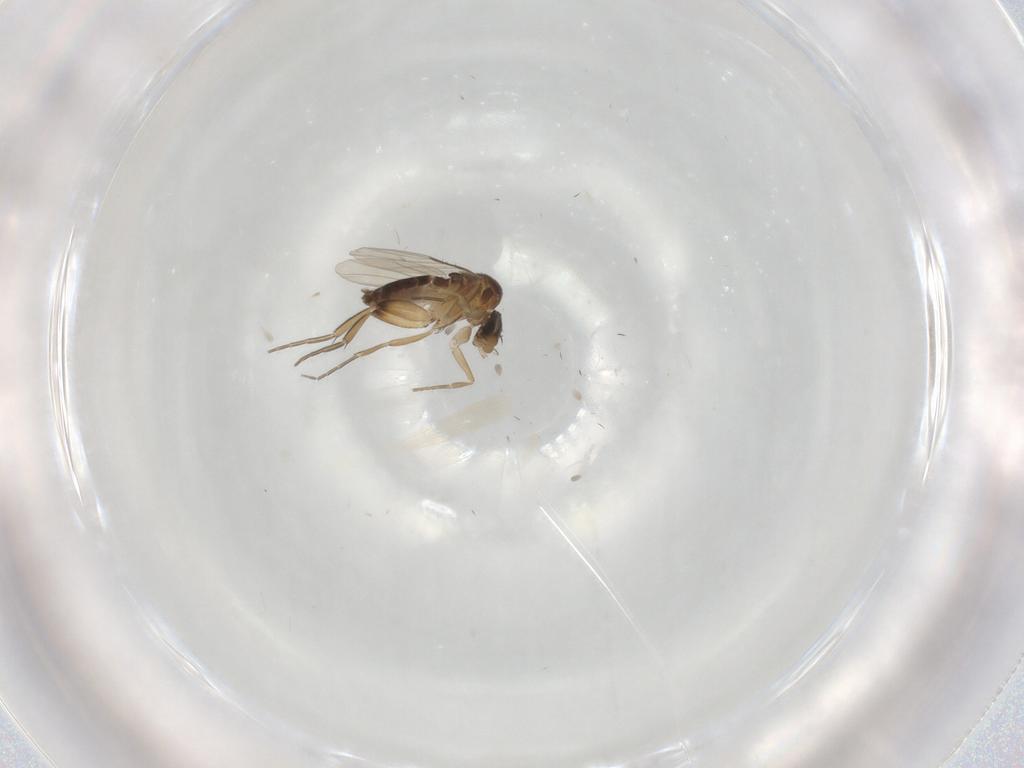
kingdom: Animalia
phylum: Arthropoda
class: Insecta
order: Diptera
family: Phoridae
